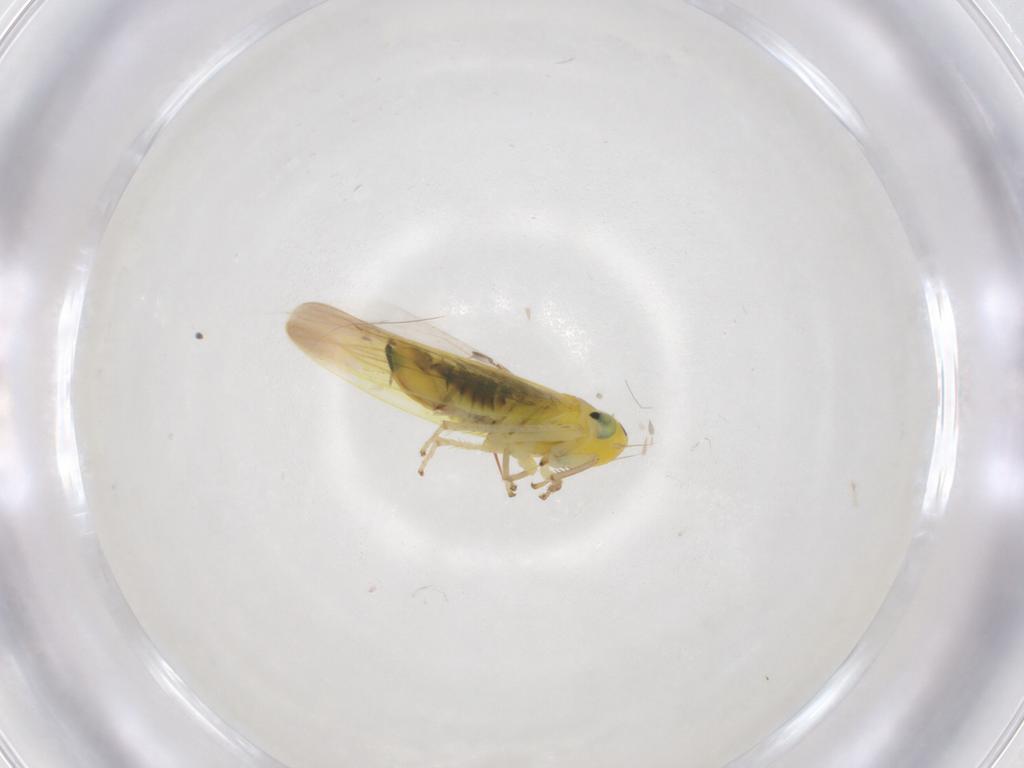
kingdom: Animalia
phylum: Arthropoda
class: Insecta
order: Hemiptera
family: Cicadellidae
